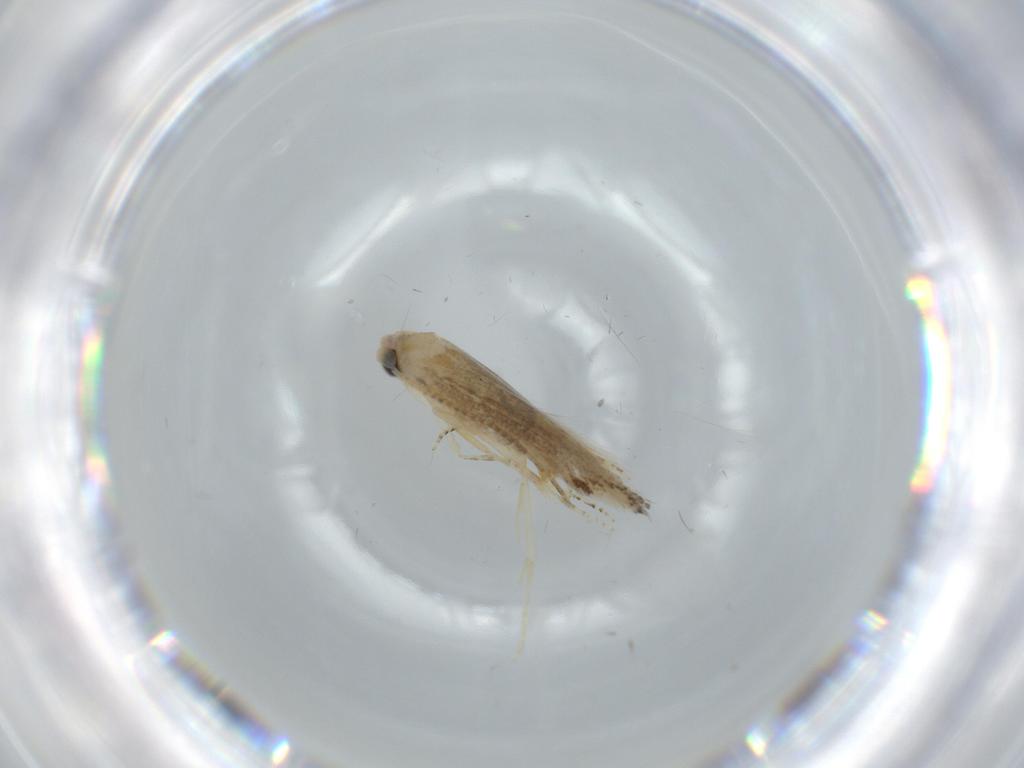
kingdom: Animalia
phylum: Arthropoda
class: Insecta
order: Lepidoptera
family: Bucculatricidae
